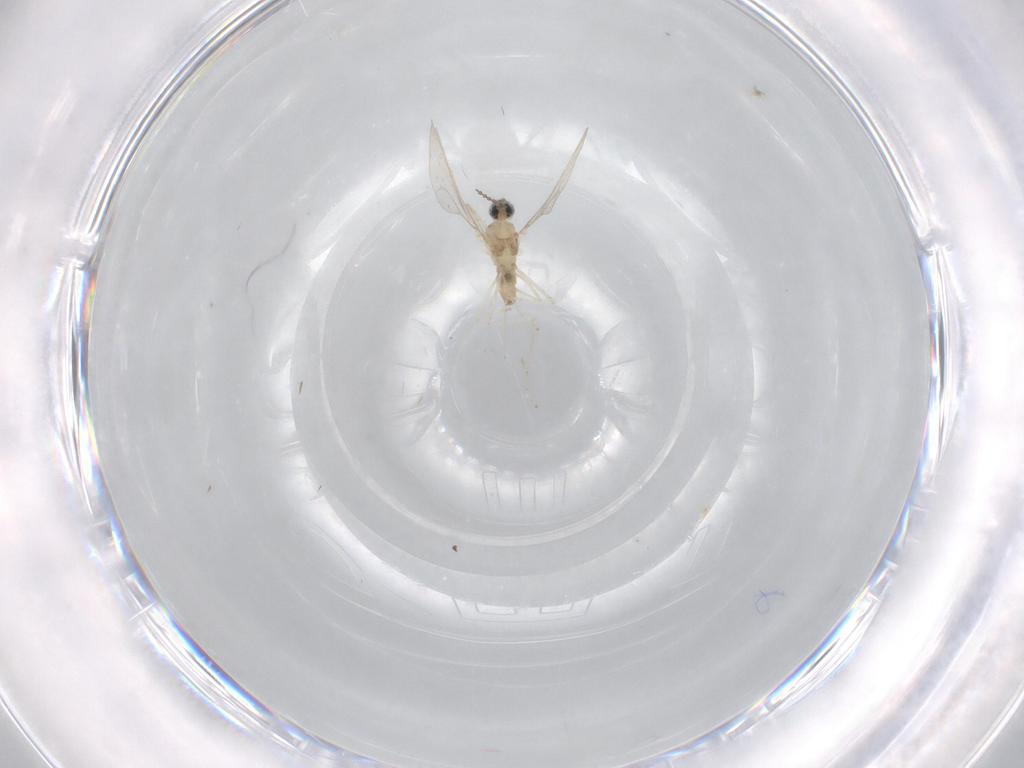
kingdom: Animalia
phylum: Arthropoda
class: Insecta
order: Diptera
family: Cecidomyiidae
